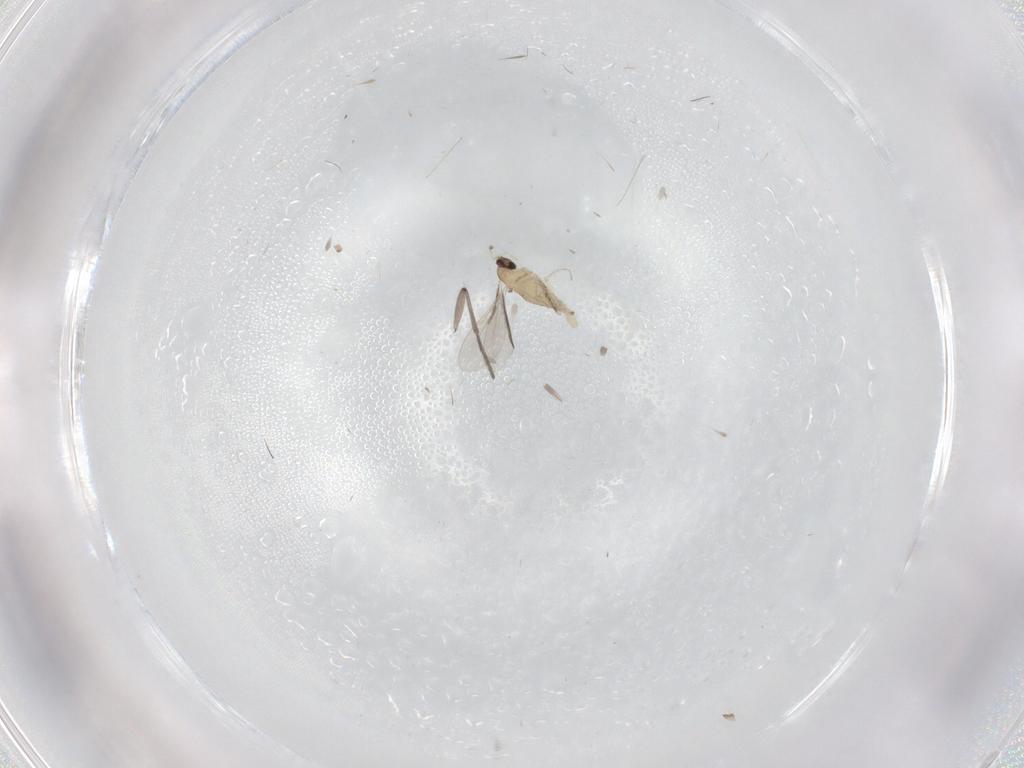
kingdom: Animalia
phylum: Arthropoda
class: Insecta
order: Diptera
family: Cecidomyiidae
